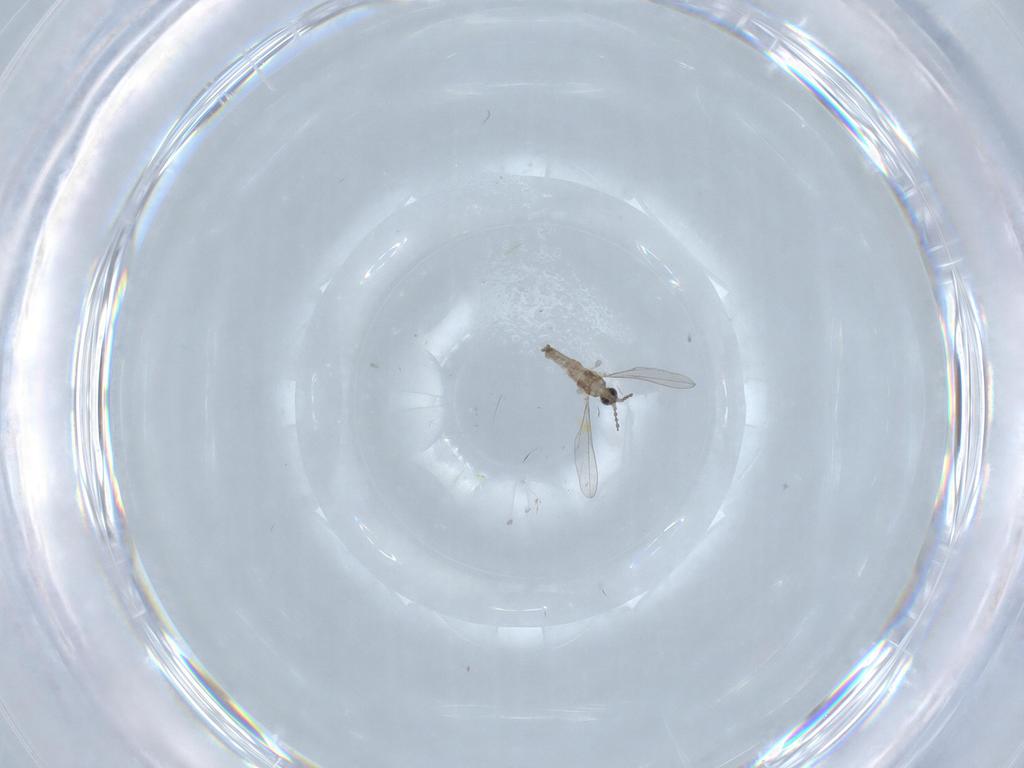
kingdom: Animalia
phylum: Arthropoda
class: Insecta
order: Diptera
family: Cecidomyiidae
